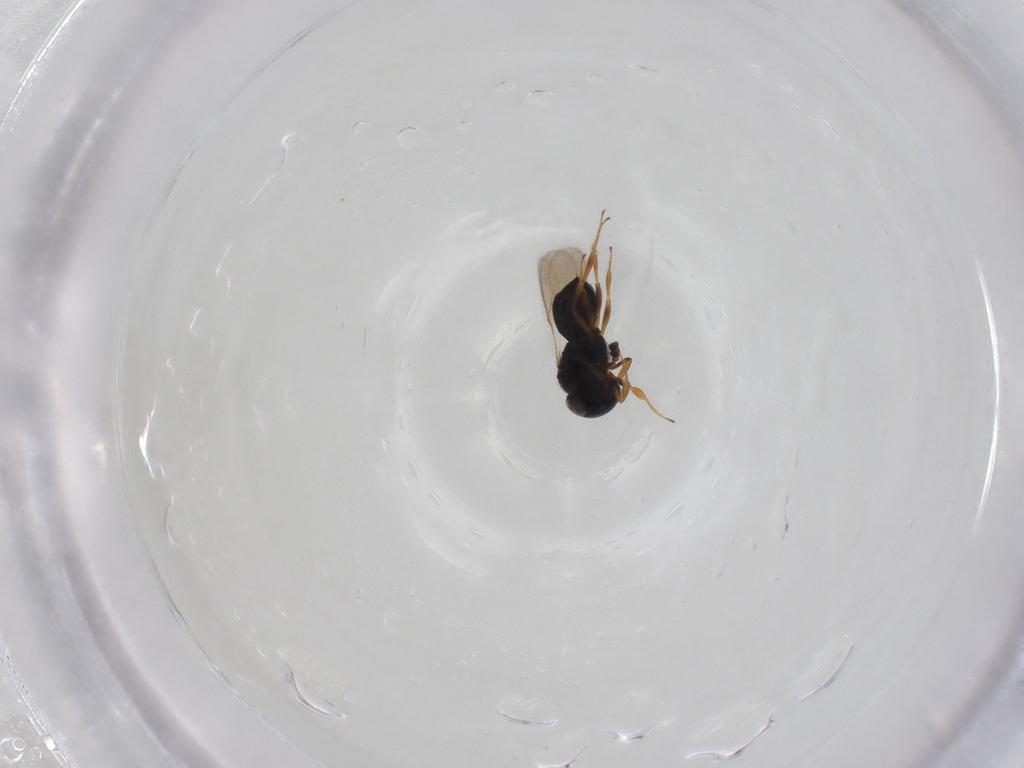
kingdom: Animalia
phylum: Arthropoda
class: Insecta
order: Hymenoptera
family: Scelionidae
